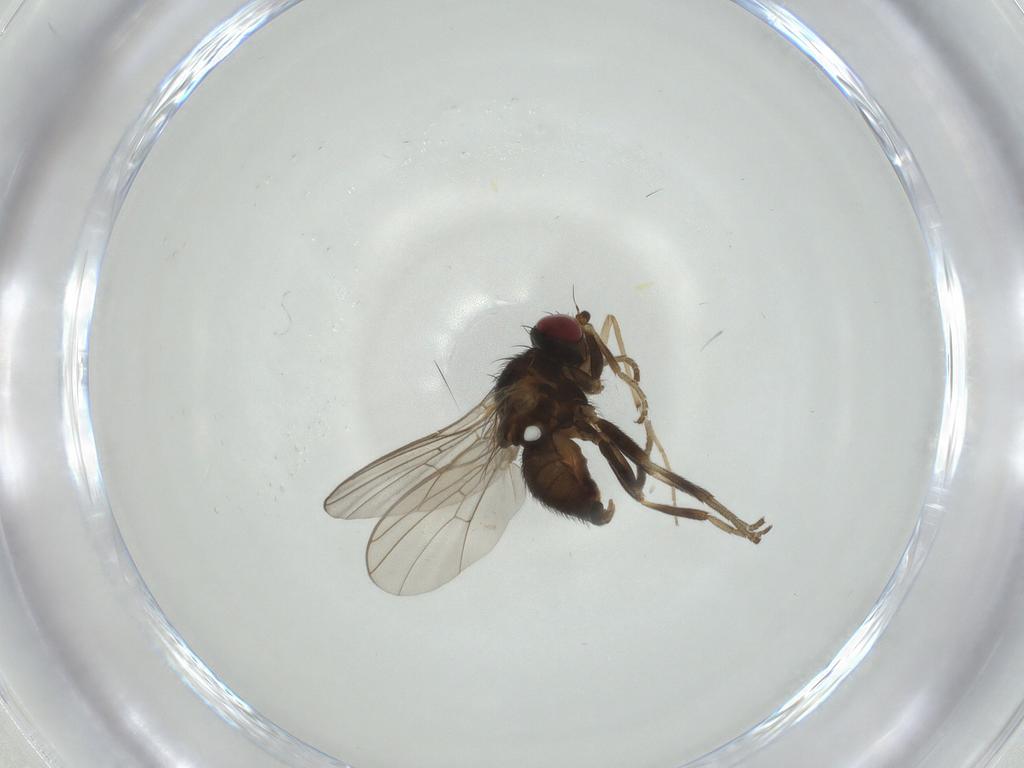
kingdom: Animalia
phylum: Arthropoda
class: Insecta
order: Diptera
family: Agromyzidae
